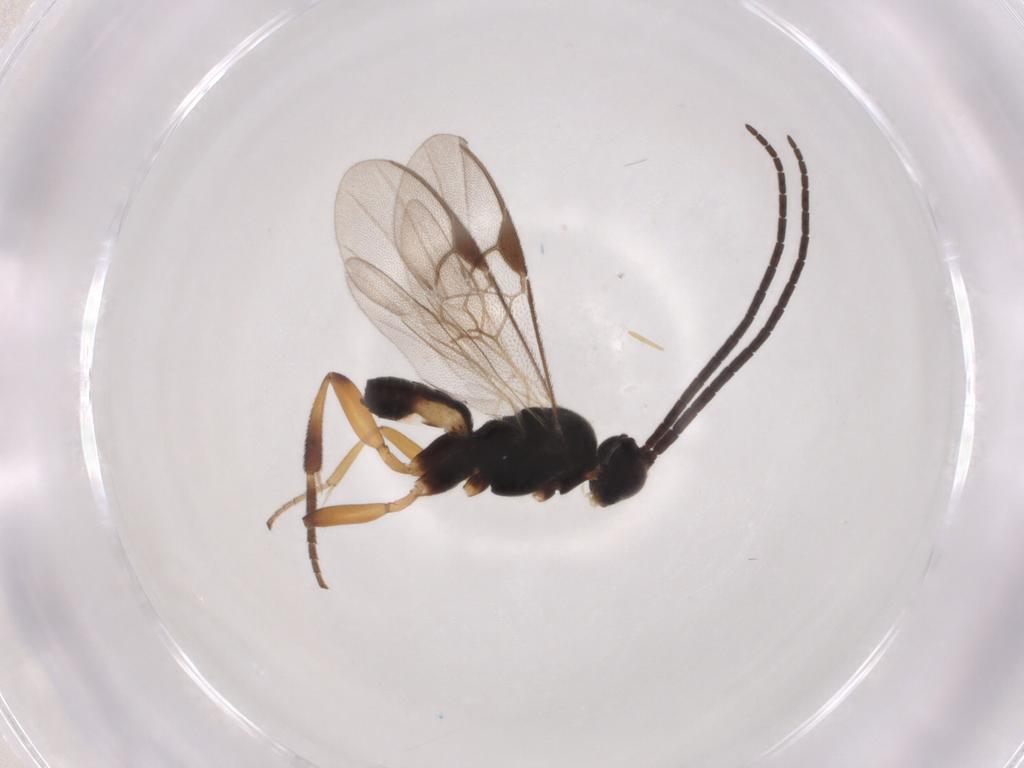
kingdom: Animalia
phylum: Arthropoda
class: Insecta
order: Hymenoptera
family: Braconidae
